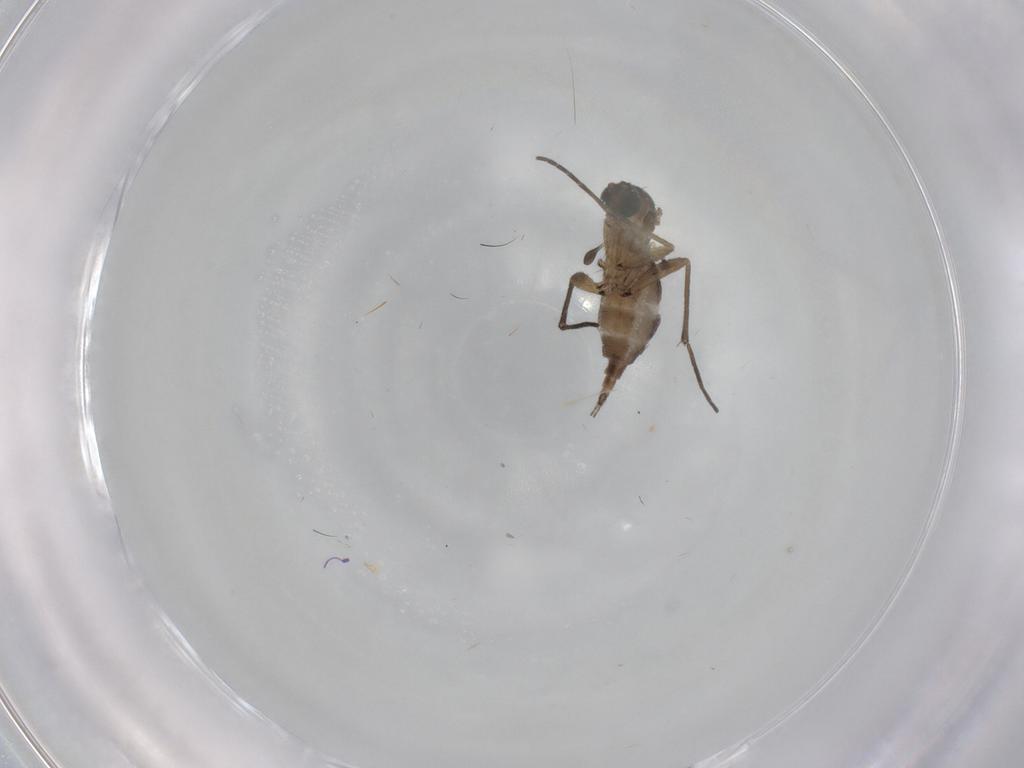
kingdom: Animalia
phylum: Arthropoda
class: Insecta
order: Diptera
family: Sciaridae
